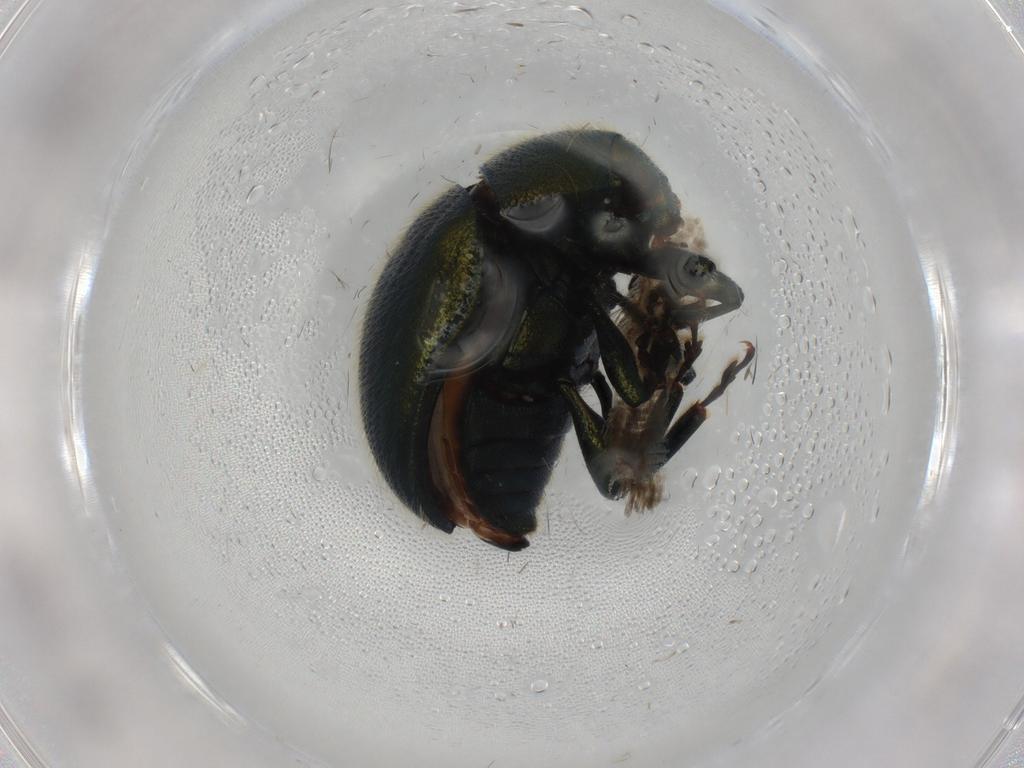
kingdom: Animalia
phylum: Arthropoda
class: Insecta
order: Coleoptera
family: Chrysomelidae
